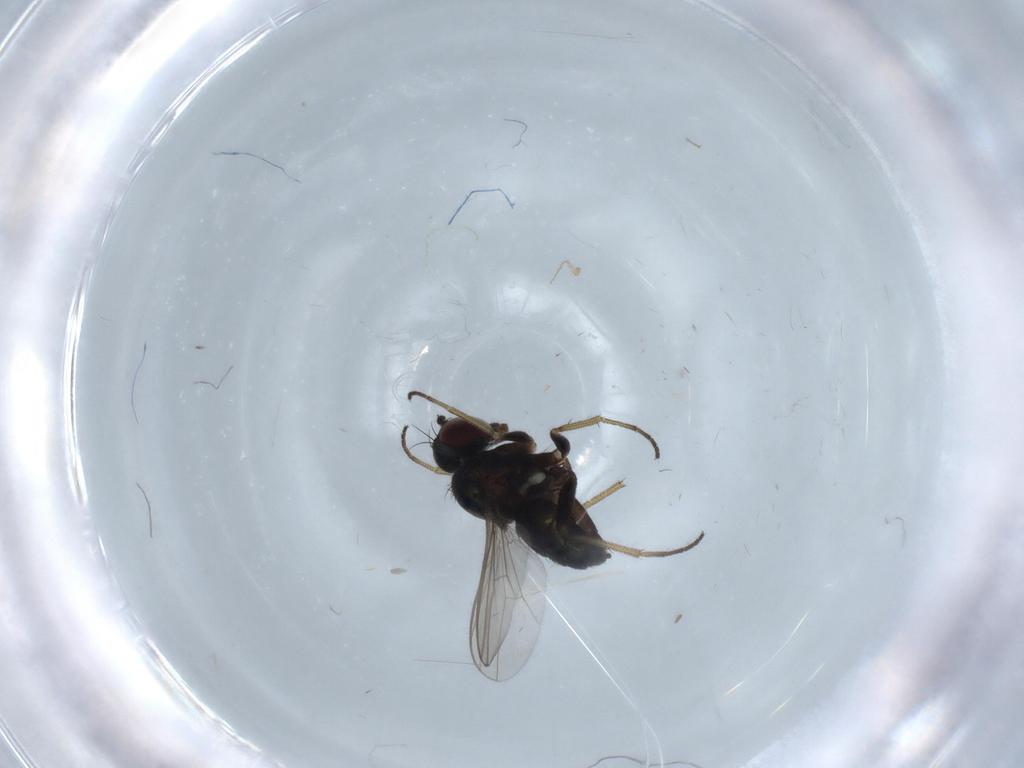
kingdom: Animalia
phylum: Arthropoda
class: Insecta
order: Diptera
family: Dolichopodidae
